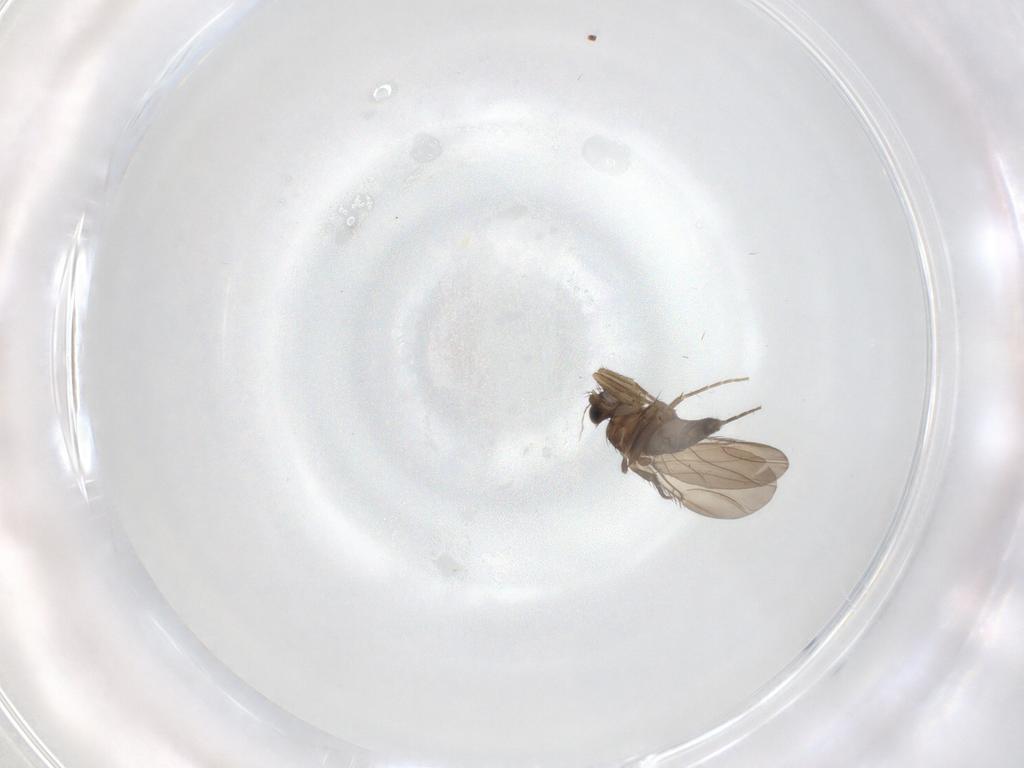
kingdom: Animalia
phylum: Arthropoda
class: Insecta
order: Diptera
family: Phoridae
